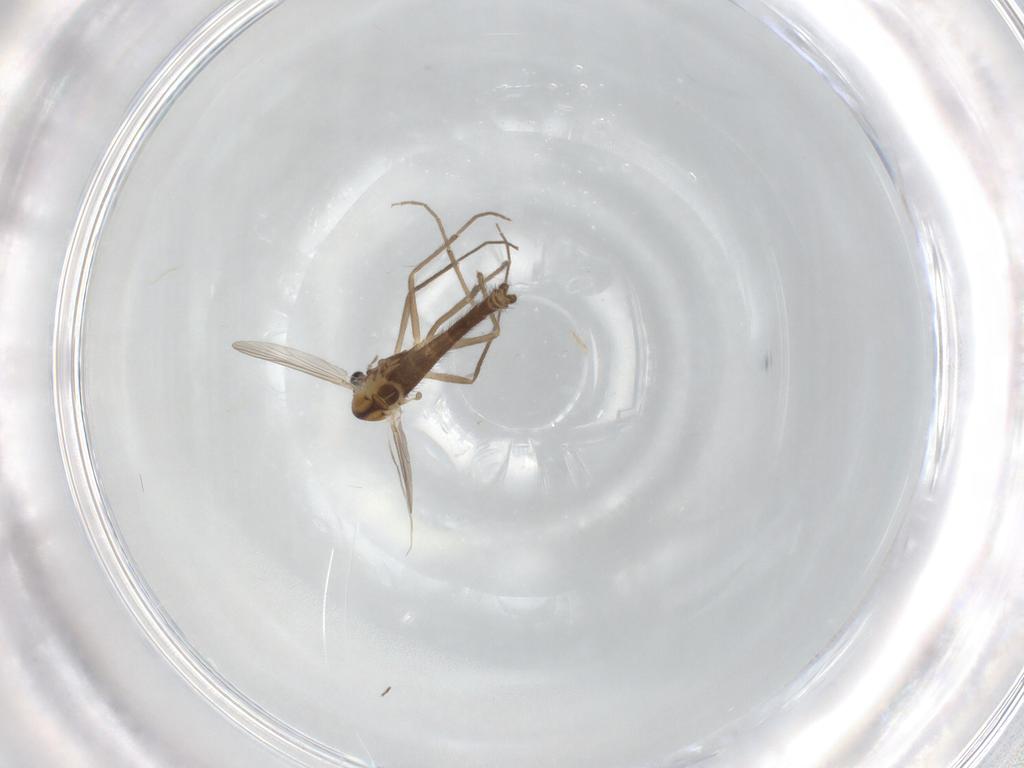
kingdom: Animalia
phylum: Arthropoda
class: Insecta
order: Diptera
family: Chironomidae
